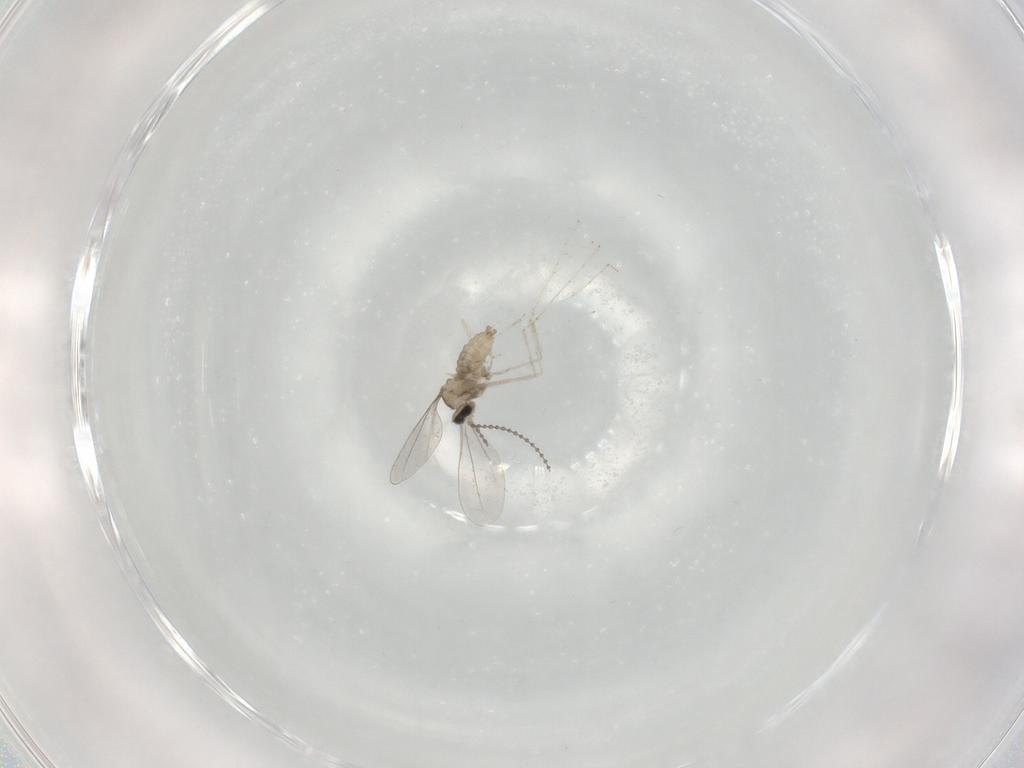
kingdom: Animalia
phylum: Arthropoda
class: Insecta
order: Diptera
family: Cecidomyiidae
